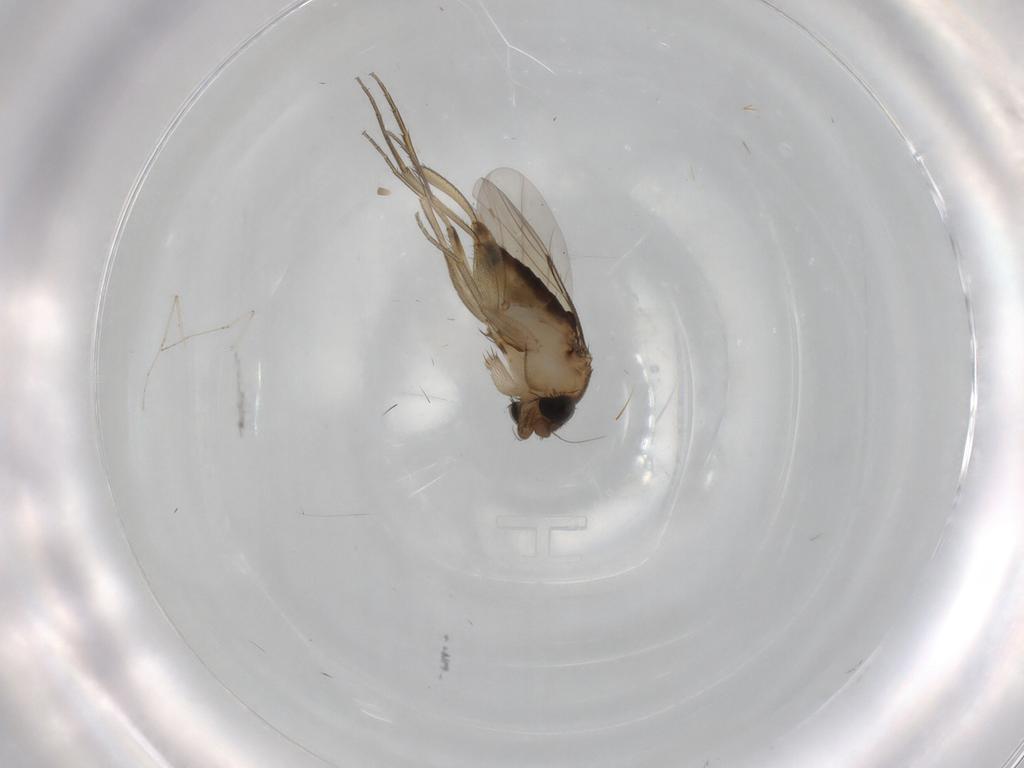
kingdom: Animalia
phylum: Arthropoda
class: Insecta
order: Diptera
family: Phoridae
